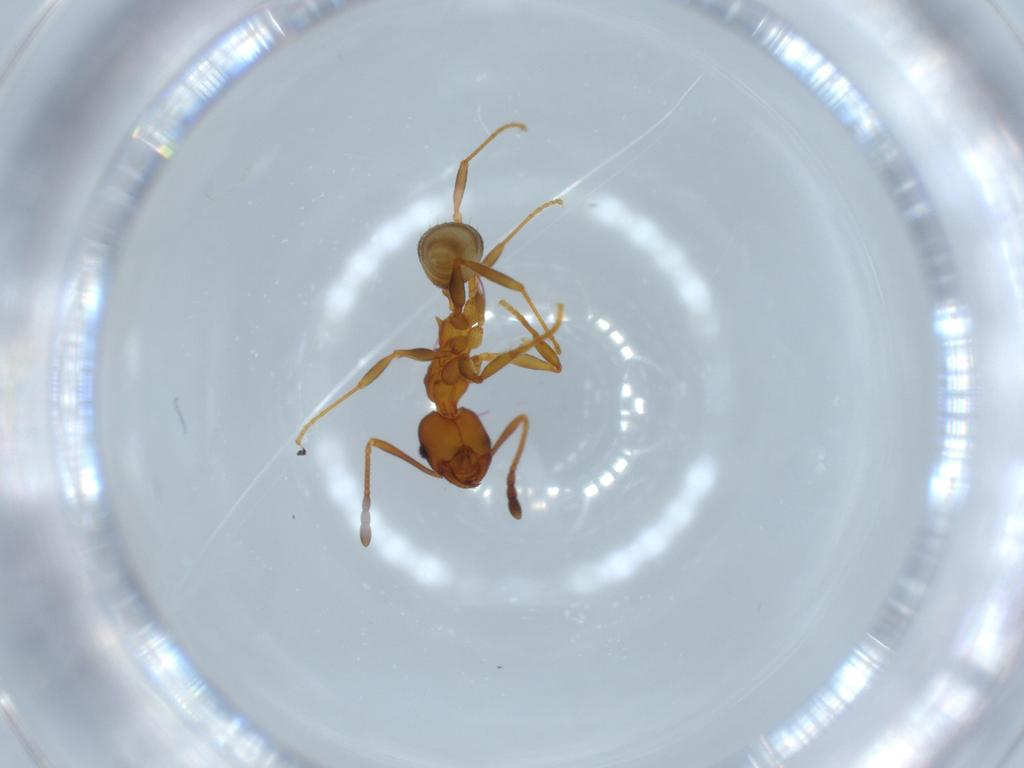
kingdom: Animalia
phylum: Arthropoda
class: Insecta
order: Hymenoptera
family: Formicidae
